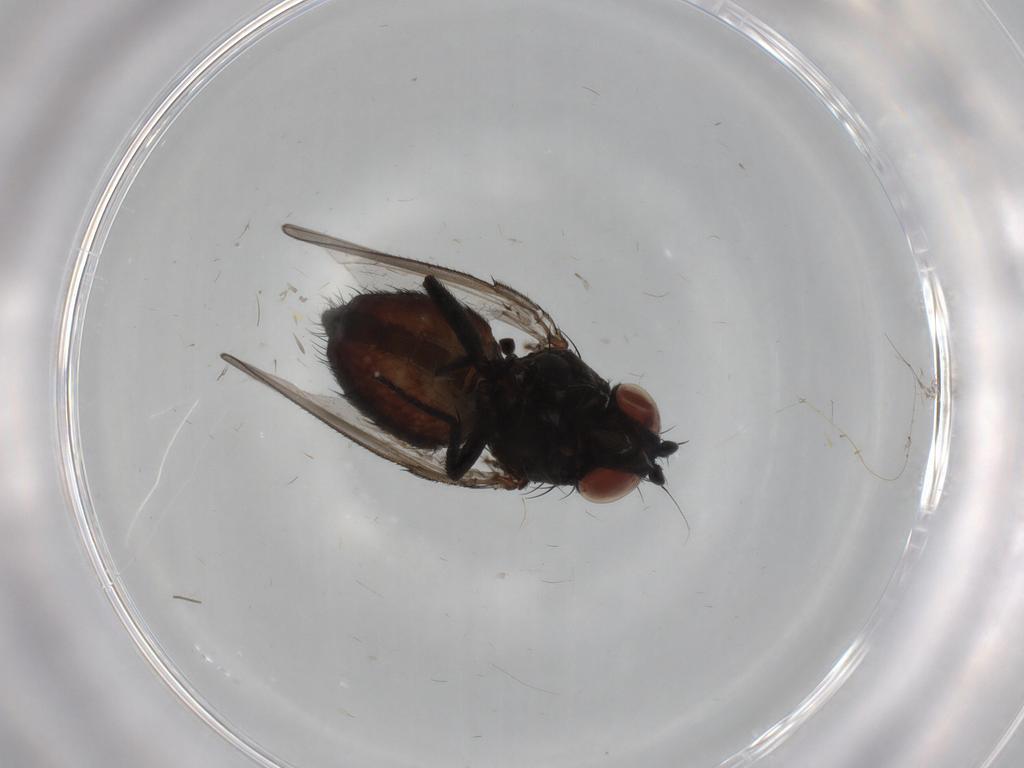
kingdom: Animalia
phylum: Arthropoda
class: Insecta
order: Diptera
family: Milichiidae
